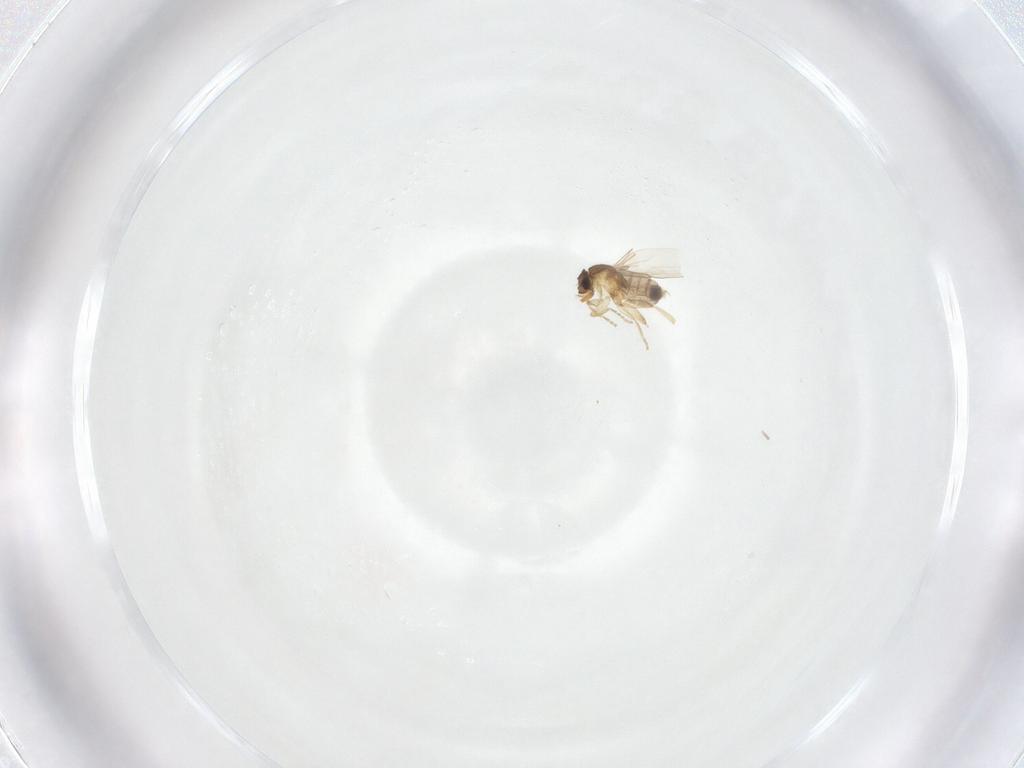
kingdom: Animalia
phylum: Arthropoda
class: Insecta
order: Diptera
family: Phoridae
